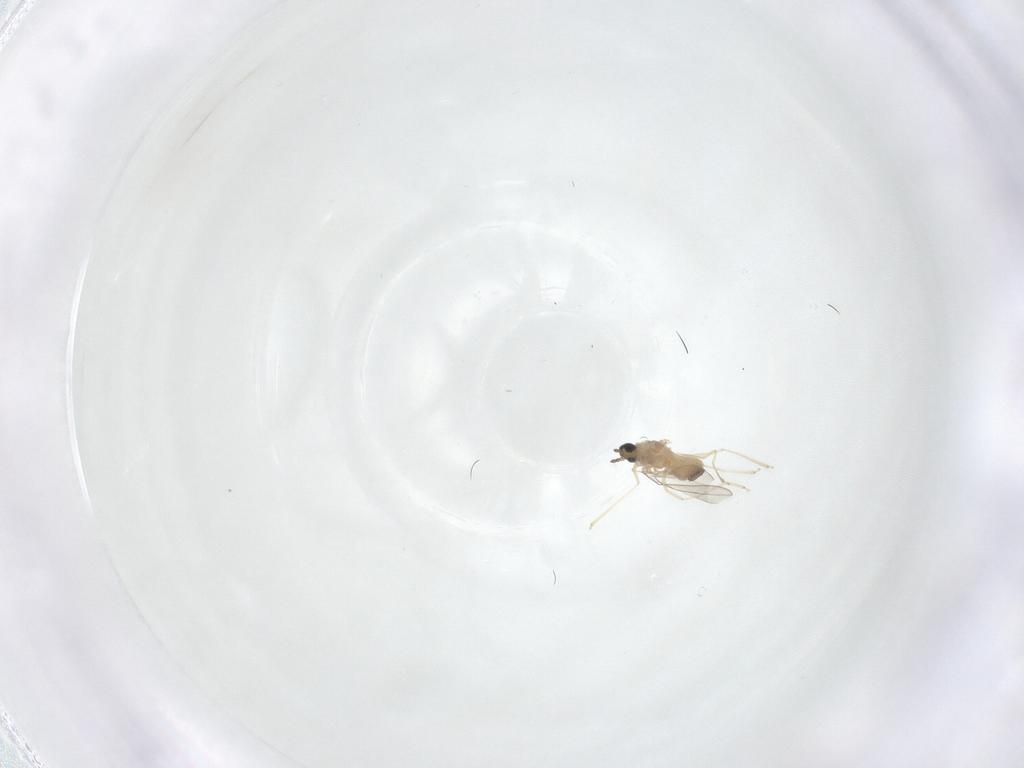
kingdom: Animalia
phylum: Arthropoda
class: Insecta
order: Diptera
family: Cecidomyiidae
